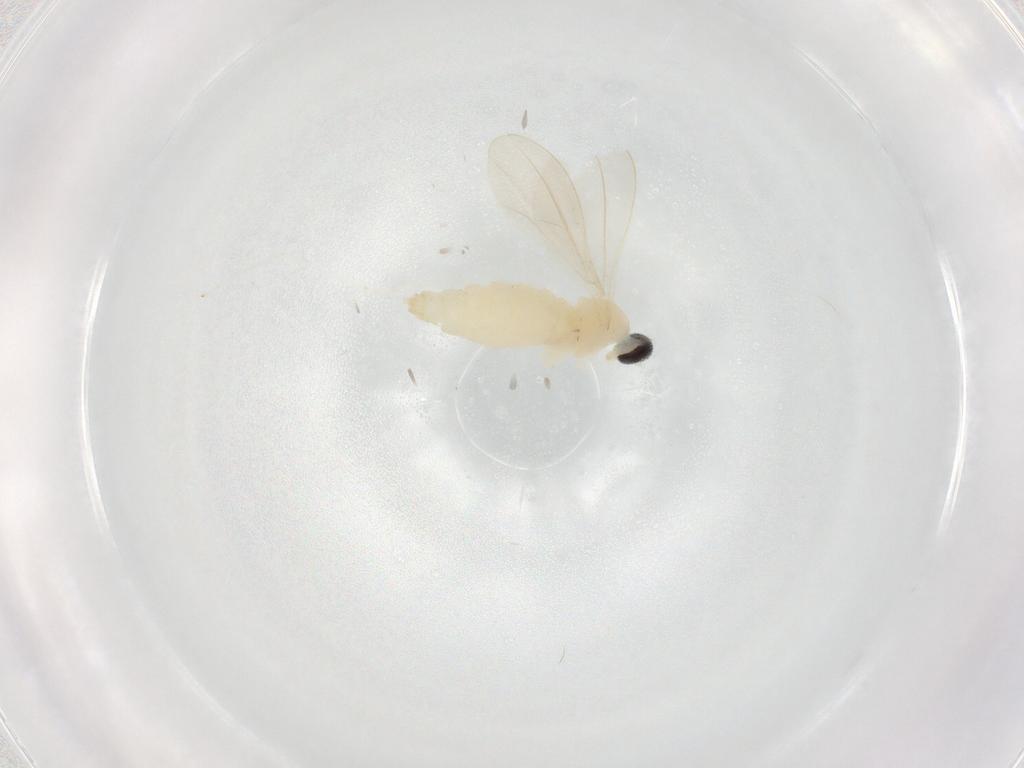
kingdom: Animalia
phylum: Arthropoda
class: Insecta
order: Diptera
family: Cecidomyiidae
